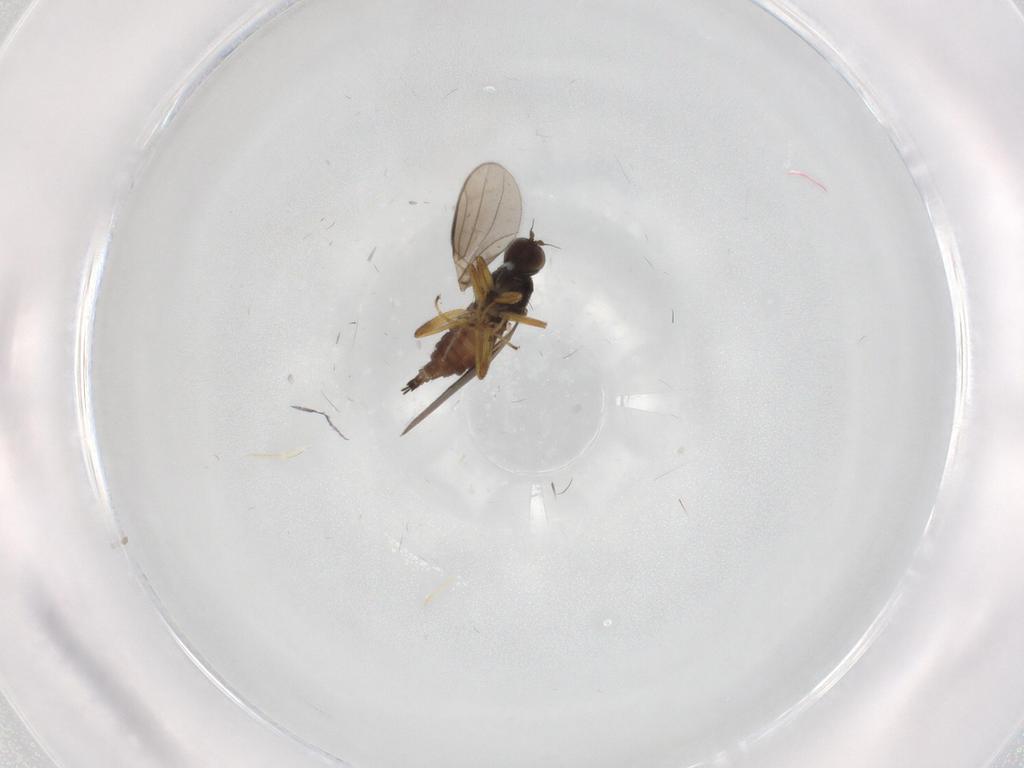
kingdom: Animalia
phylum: Arthropoda
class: Insecta
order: Diptera
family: Hybotidae
